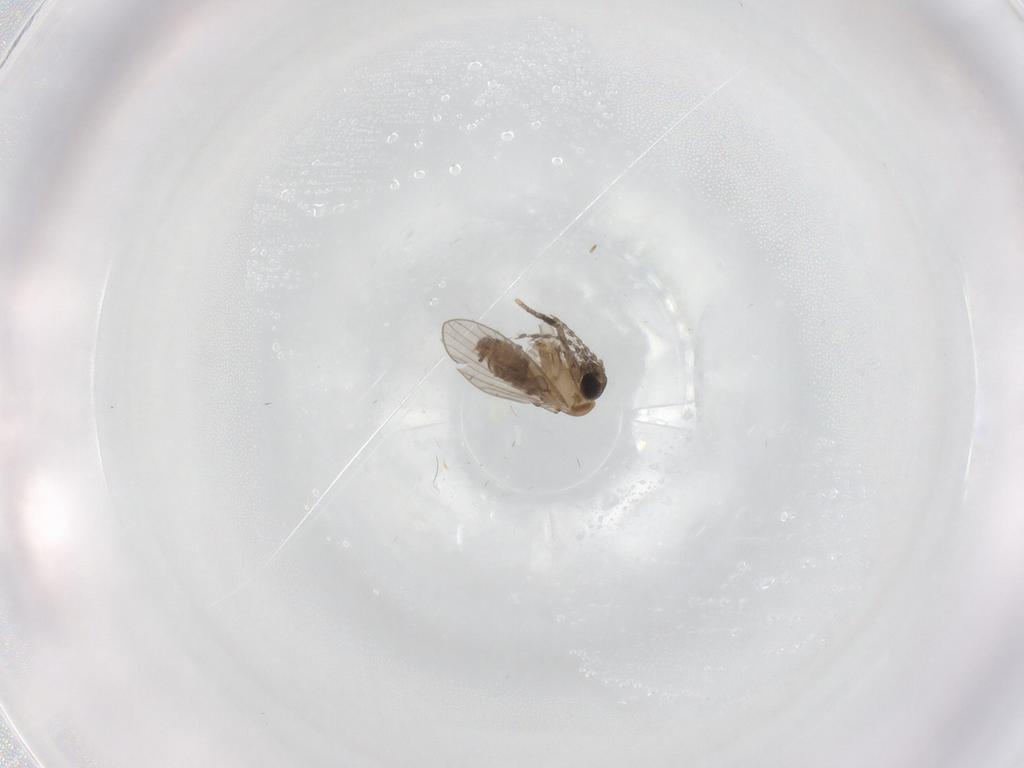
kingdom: Animalia
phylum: Arthropoda
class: Insecta
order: Diptera
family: Psychodidae
